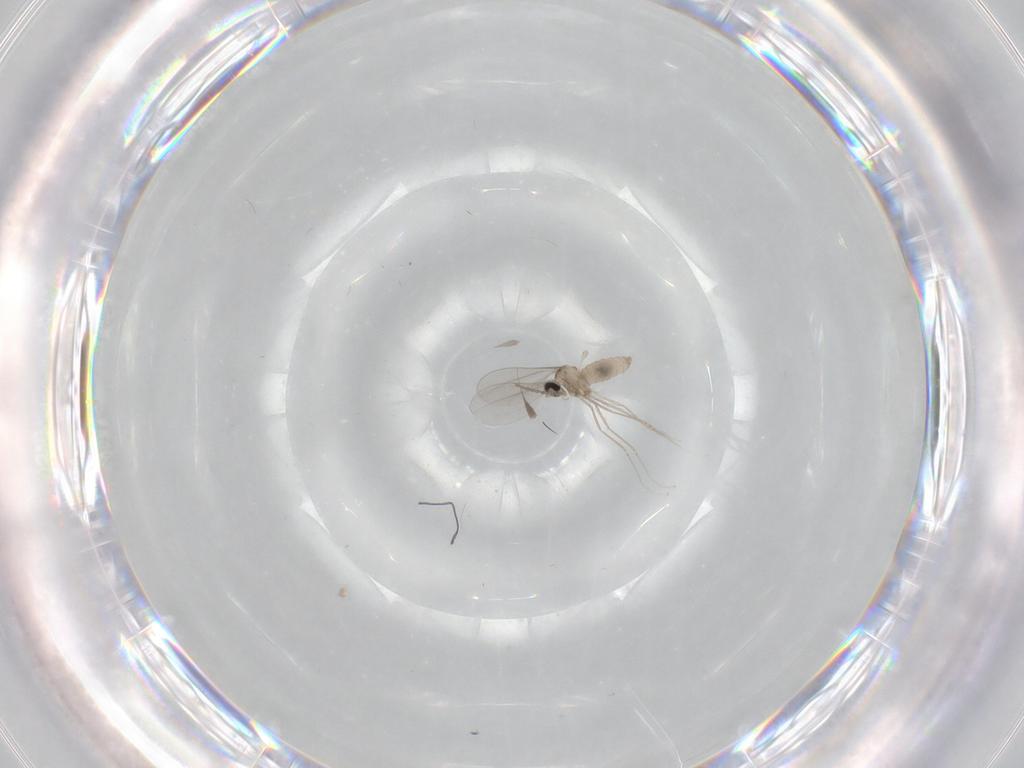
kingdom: Animalia
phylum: Arthropoda
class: Insecta
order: Diptera
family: Cecidomyiidae
